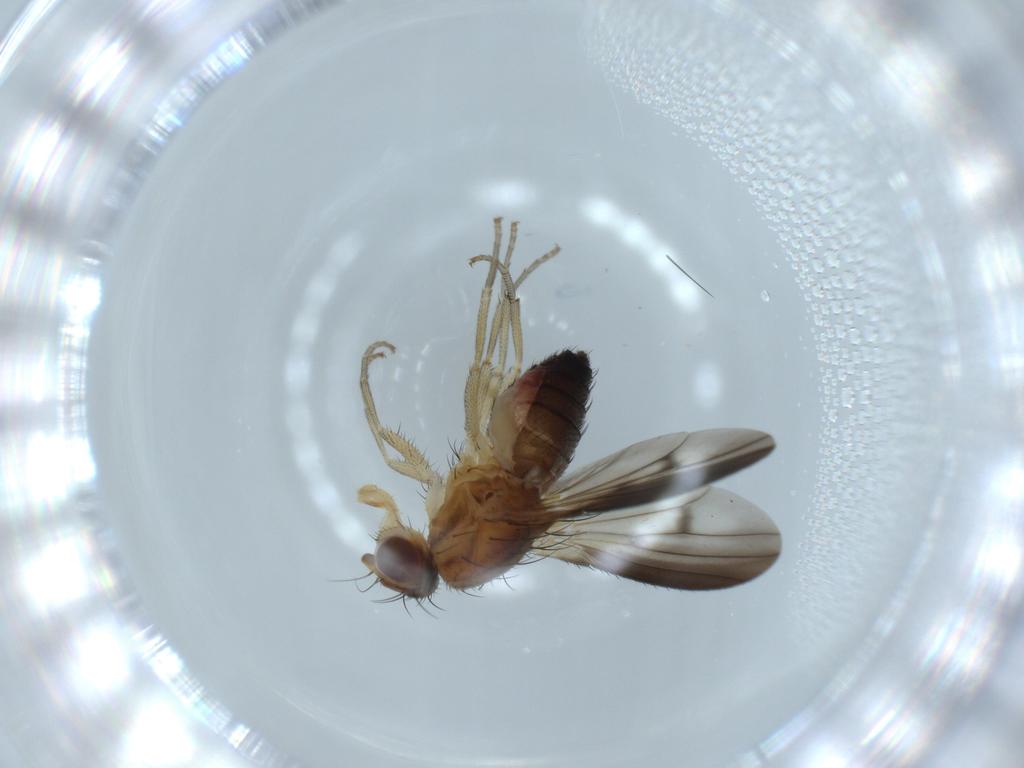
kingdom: Animalia
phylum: Arthropoda
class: Insecta
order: Diptera
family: Heleomyzidae
